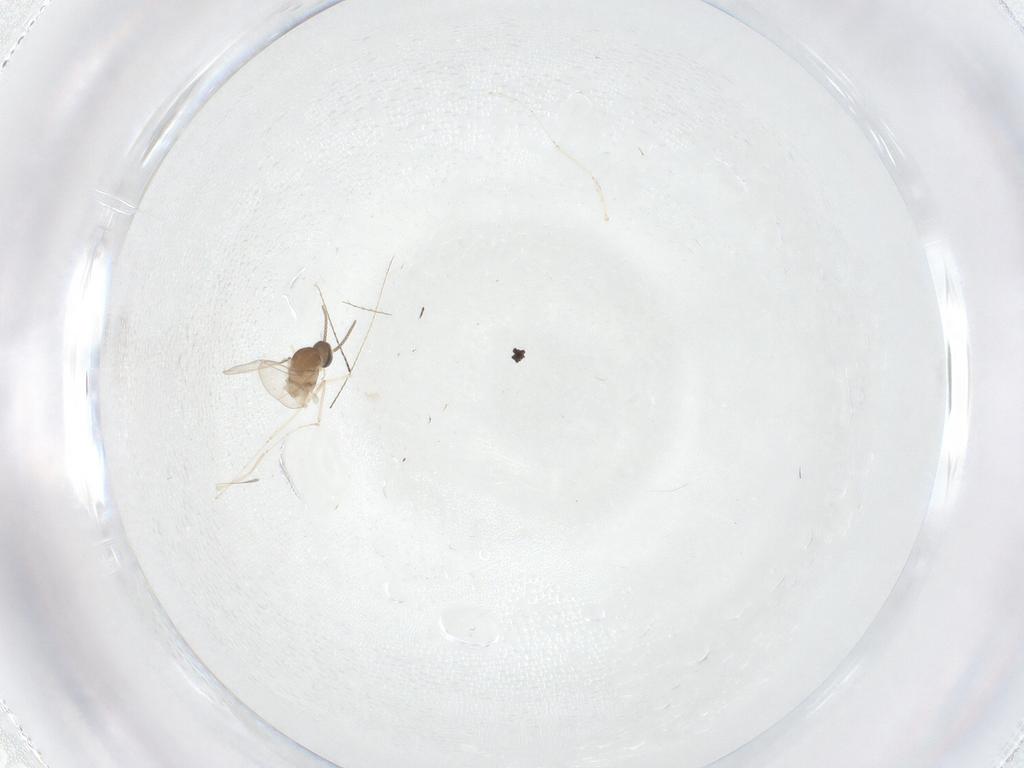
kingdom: Animalia
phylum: Arthropoda
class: Insecta
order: Diptera
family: Cecidomyiidae
